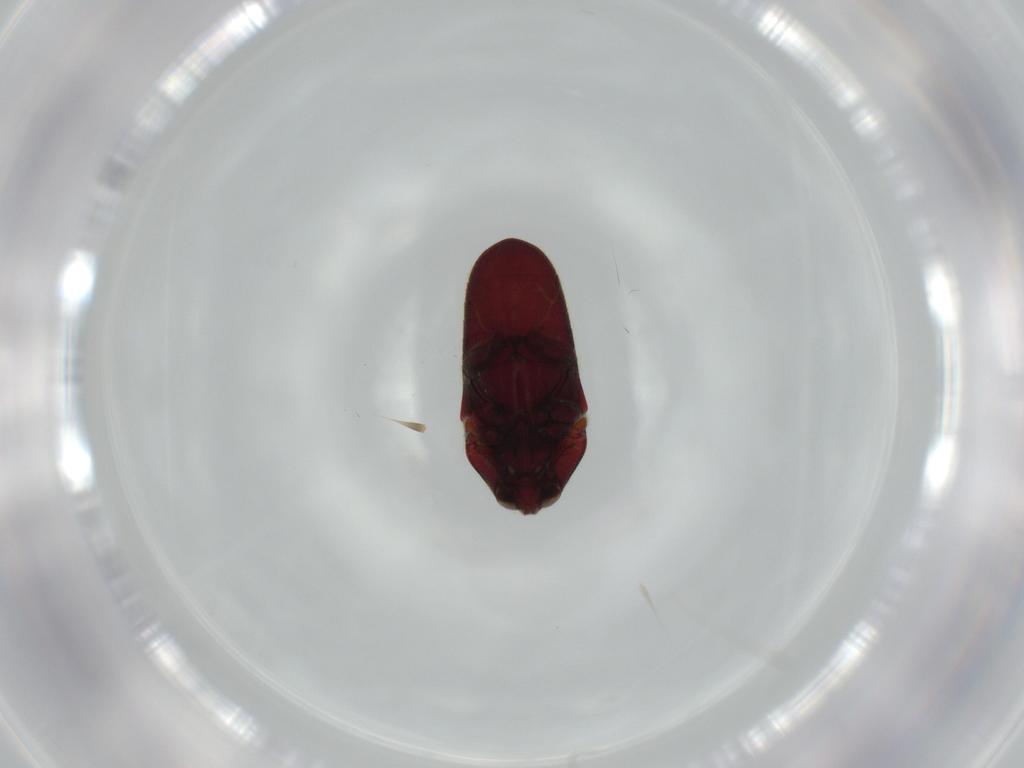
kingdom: Animalia
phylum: Arthropoda
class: Insecta
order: Coleoptera
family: Throscidae
